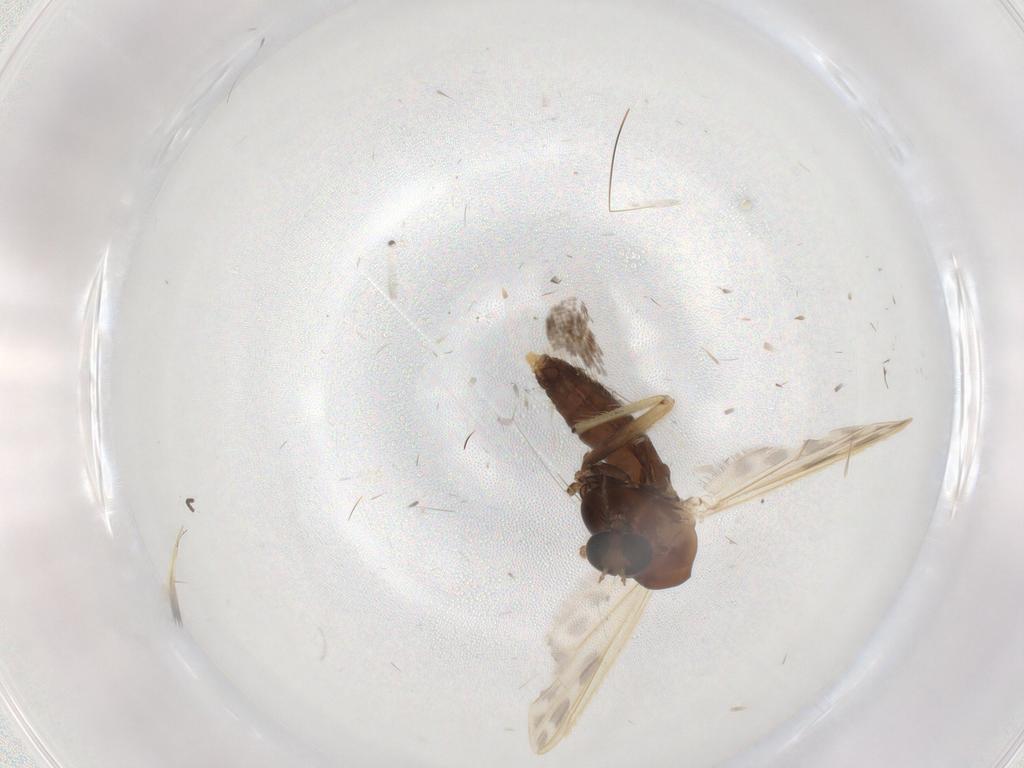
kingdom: Animalia
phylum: Arthropoda
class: Insecta
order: Diptera
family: Chironomidae
